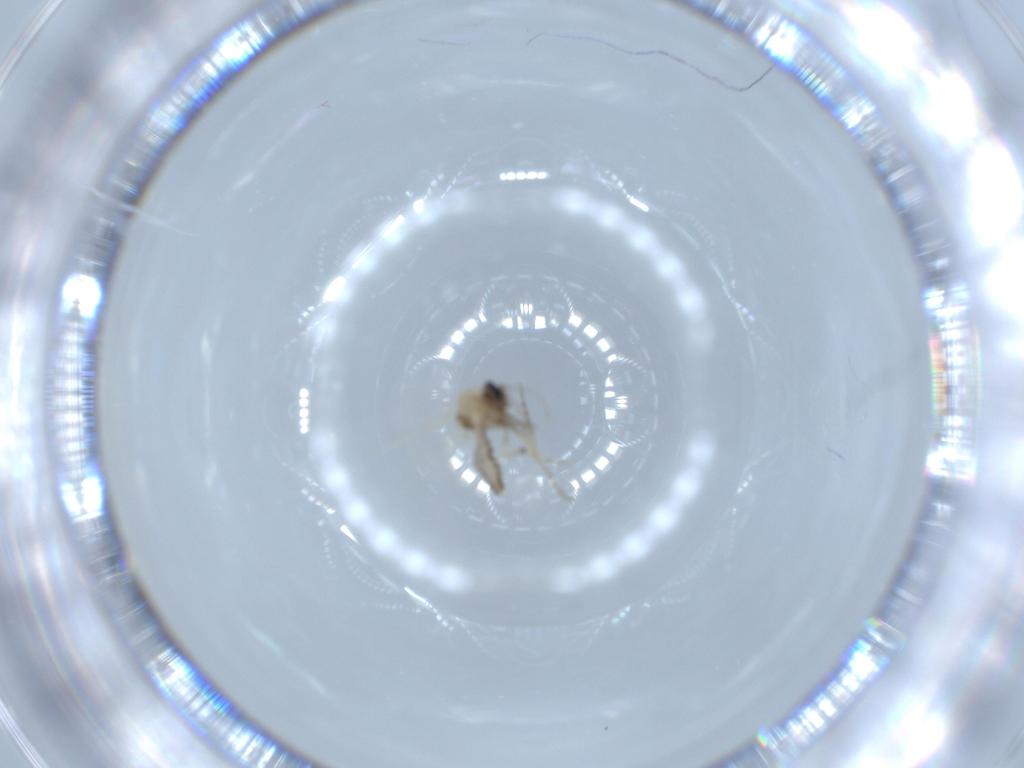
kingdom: Animalia
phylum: Arthropoda
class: Insecta
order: Diptera
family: Ceratopogonidae
